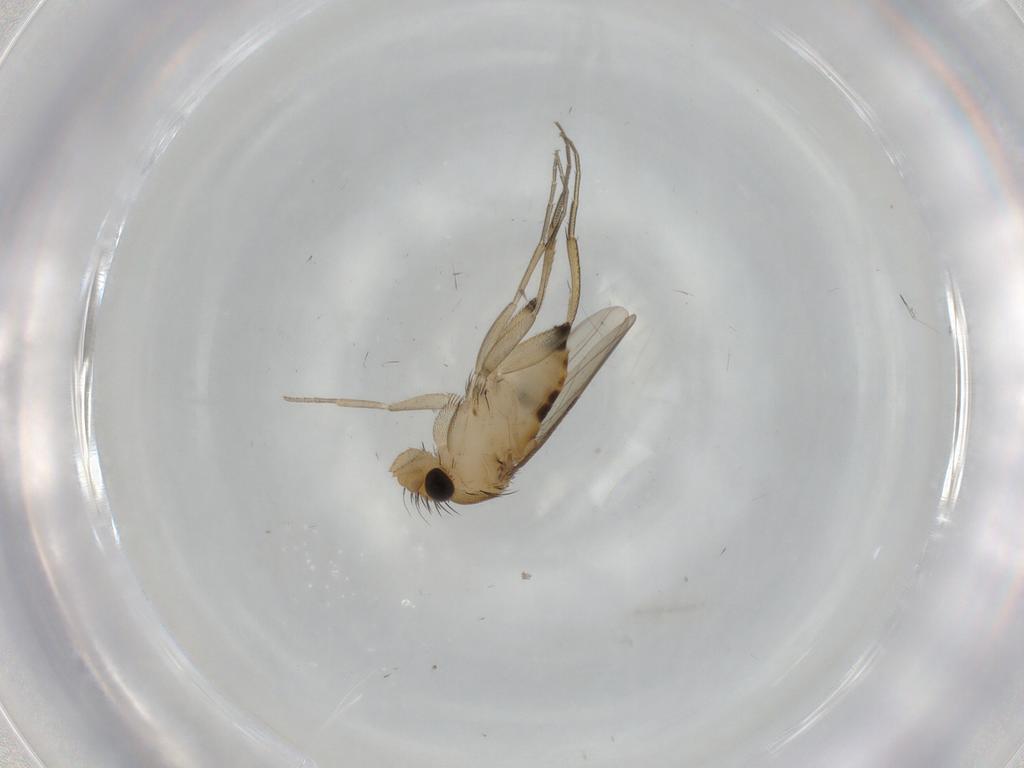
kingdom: Animalia
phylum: Arthropoda
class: Insecta
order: Diptera
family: Phoridae
